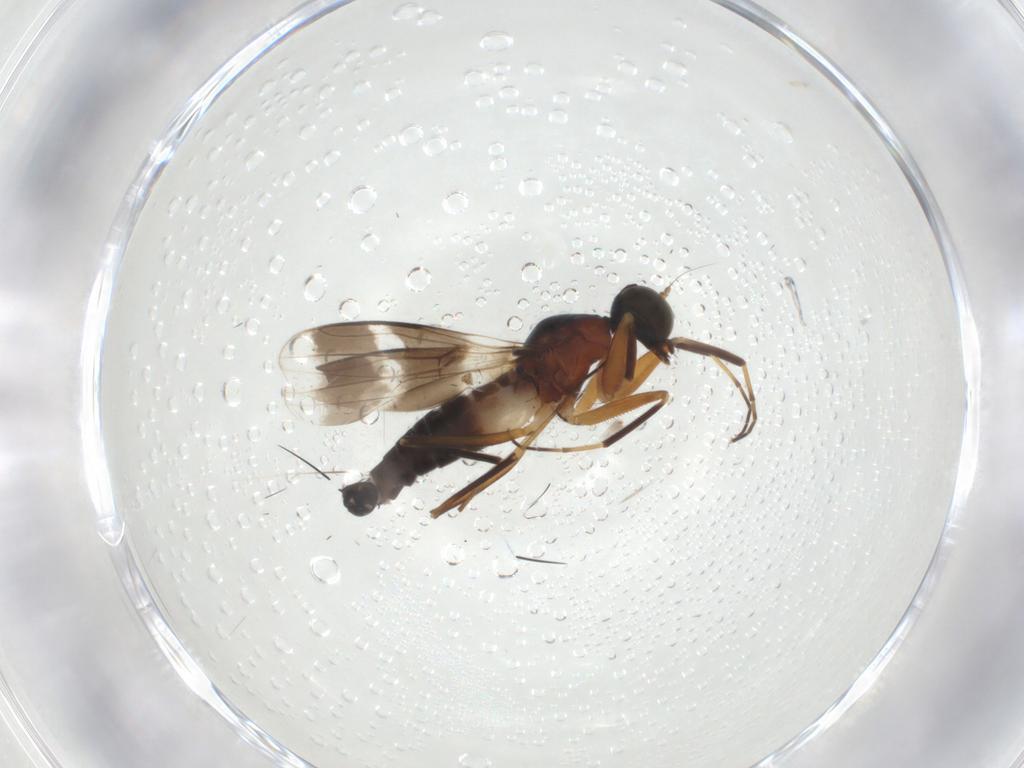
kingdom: Animalia
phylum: Arthropoda
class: Insecta
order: Diptera
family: Hybotidae
